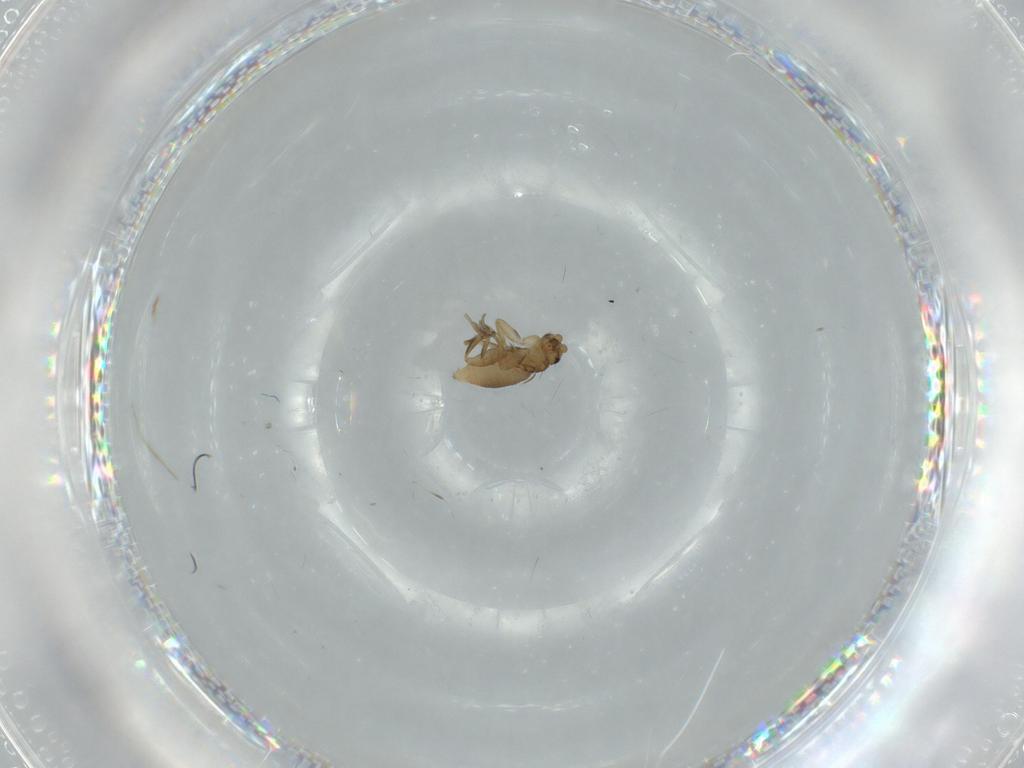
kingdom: Animalia
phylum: Arthropoda
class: Insecta
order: Diptera
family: Phoridae
